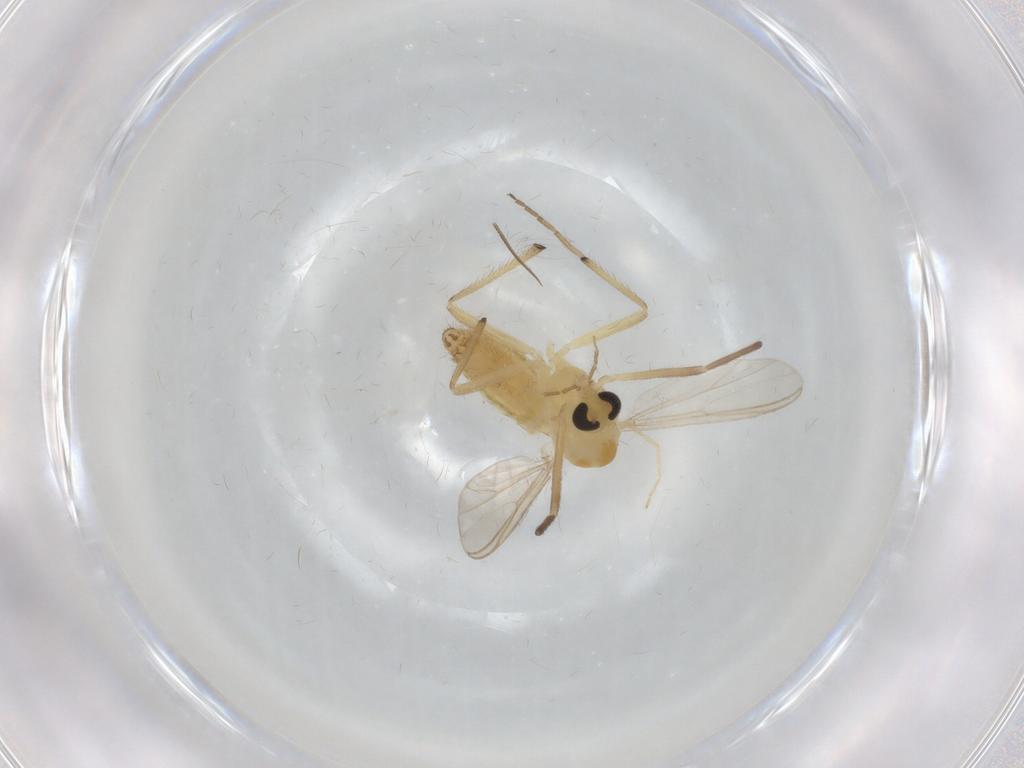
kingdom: Animalia
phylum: Arthropoda
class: Insecta
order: Diptera
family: Chironomidae
